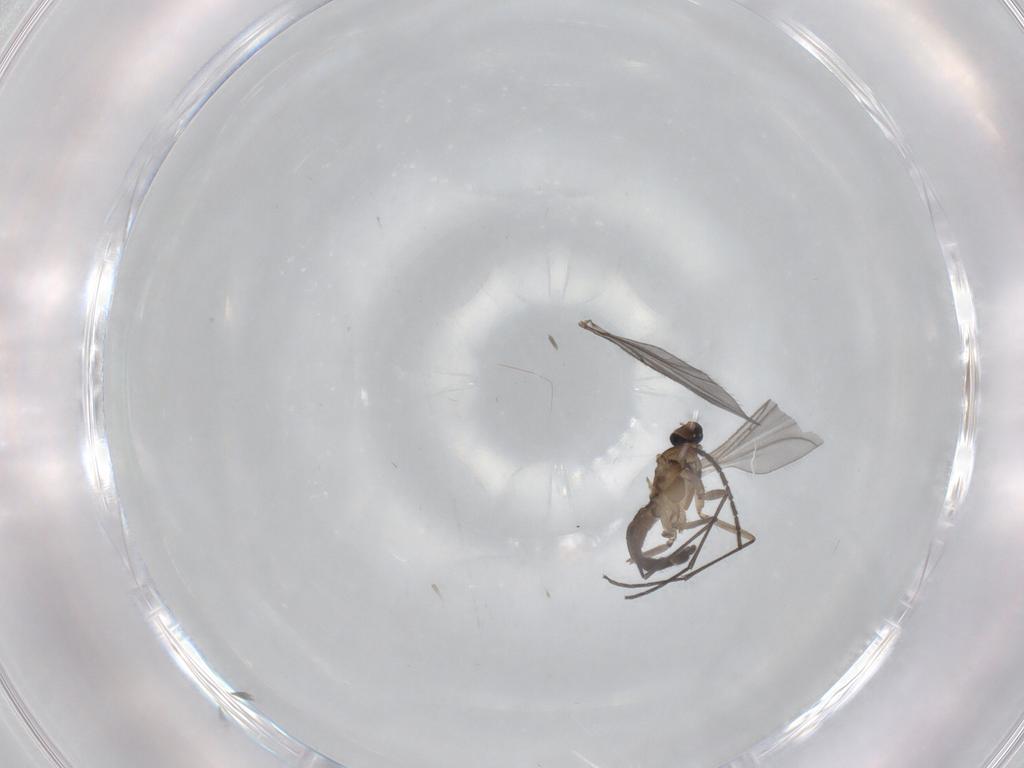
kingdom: Animalia
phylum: Arthropoda
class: Insecta
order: Diptera
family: Sciaridae
